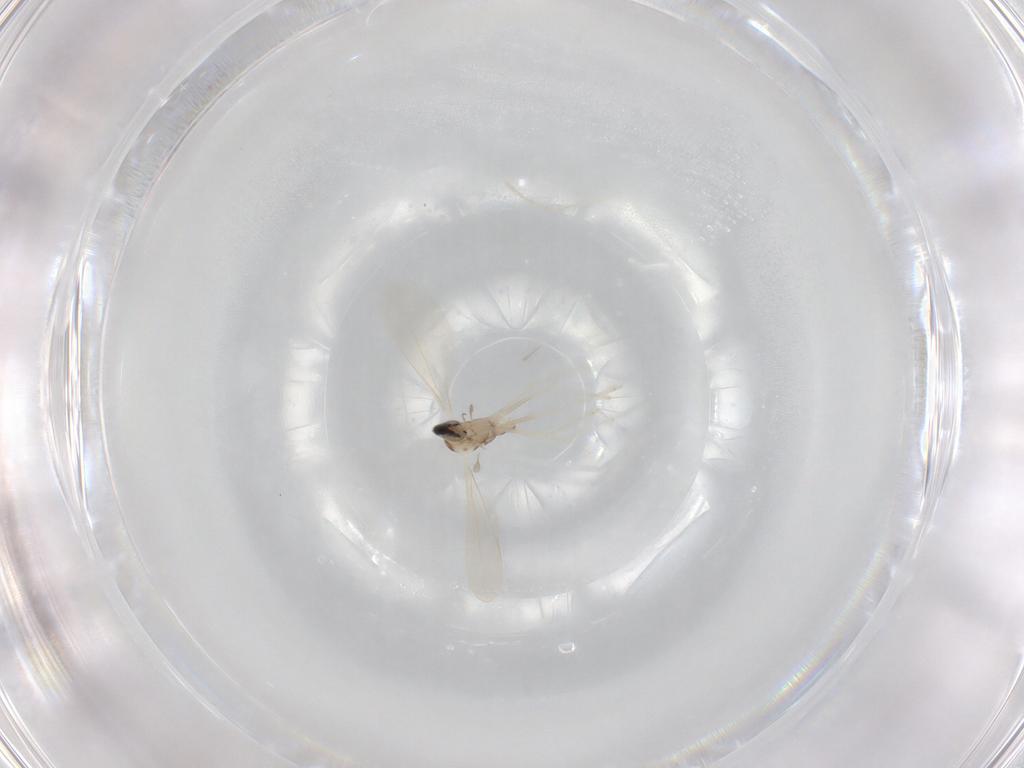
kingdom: Animalia
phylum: Arthropoda
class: Insecta
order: Diptera
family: Cecidomyiidae
